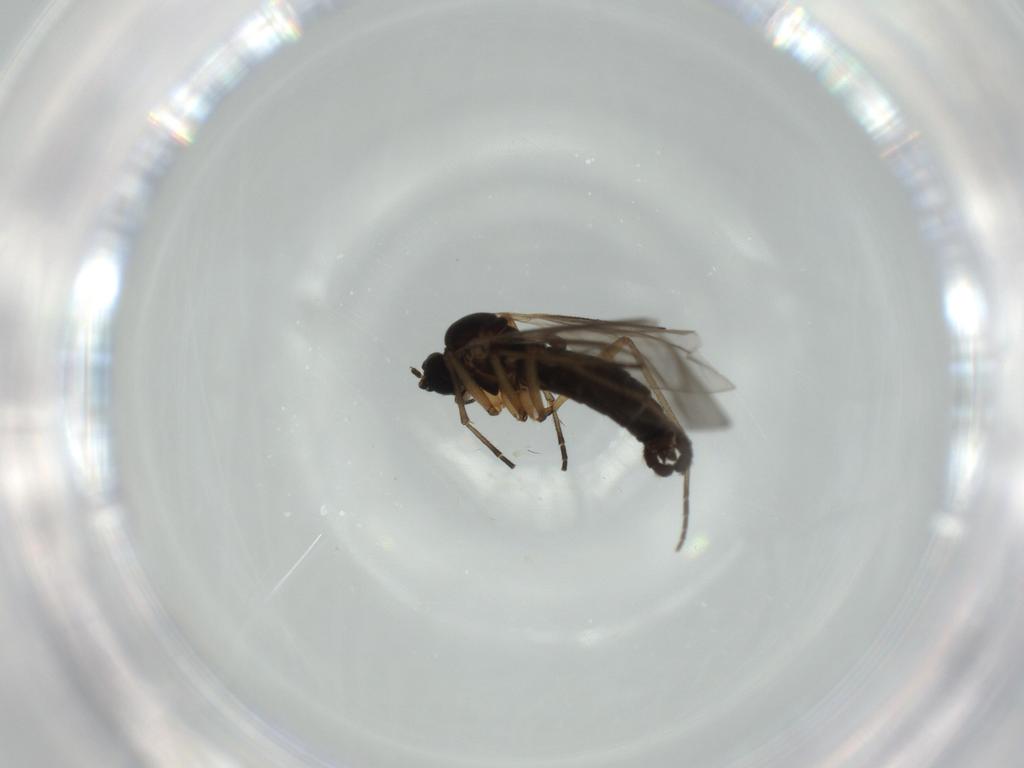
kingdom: Animalia
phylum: Arthropoda
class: Insecta
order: Diptera
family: Sciaridae
